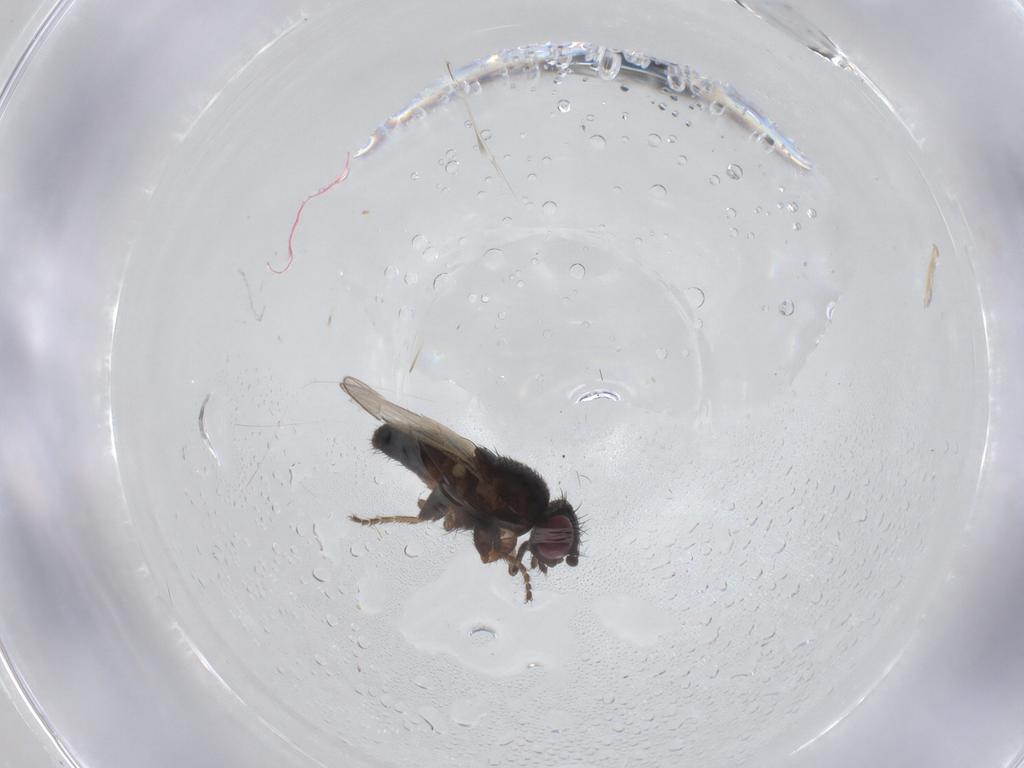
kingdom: Animalia
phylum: Arthropoda
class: Insecta
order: Diptera
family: Milichiidae
